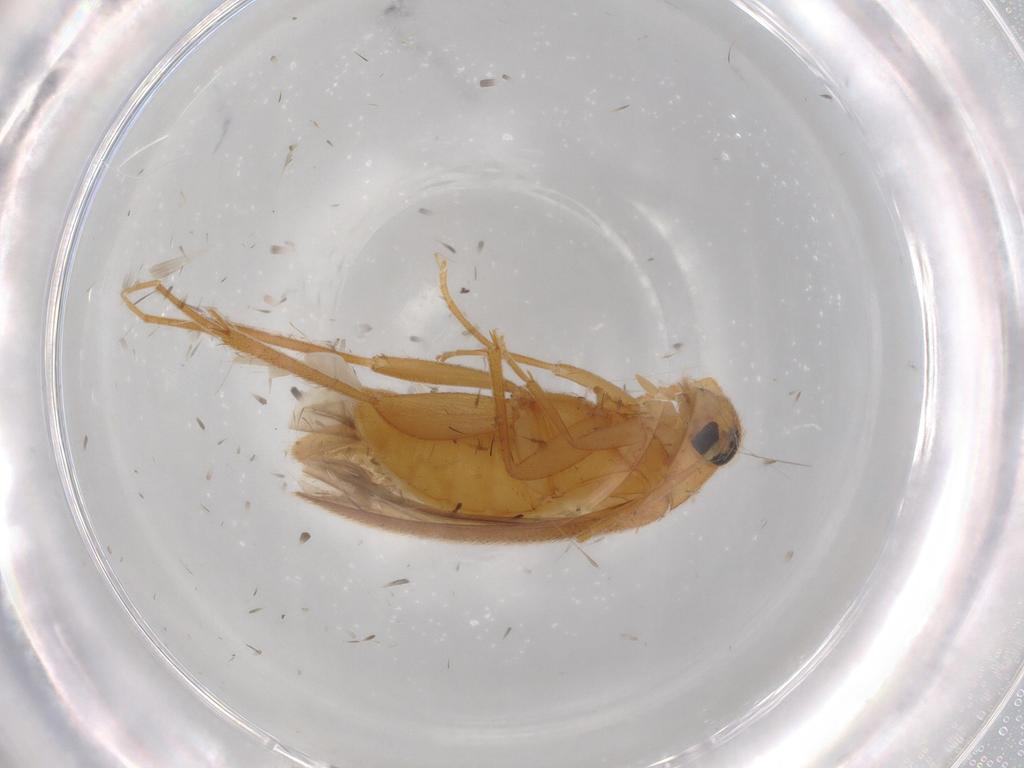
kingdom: Animalia
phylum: Arthropoda
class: Insecta
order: Coleoptera
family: Scraptiidae
